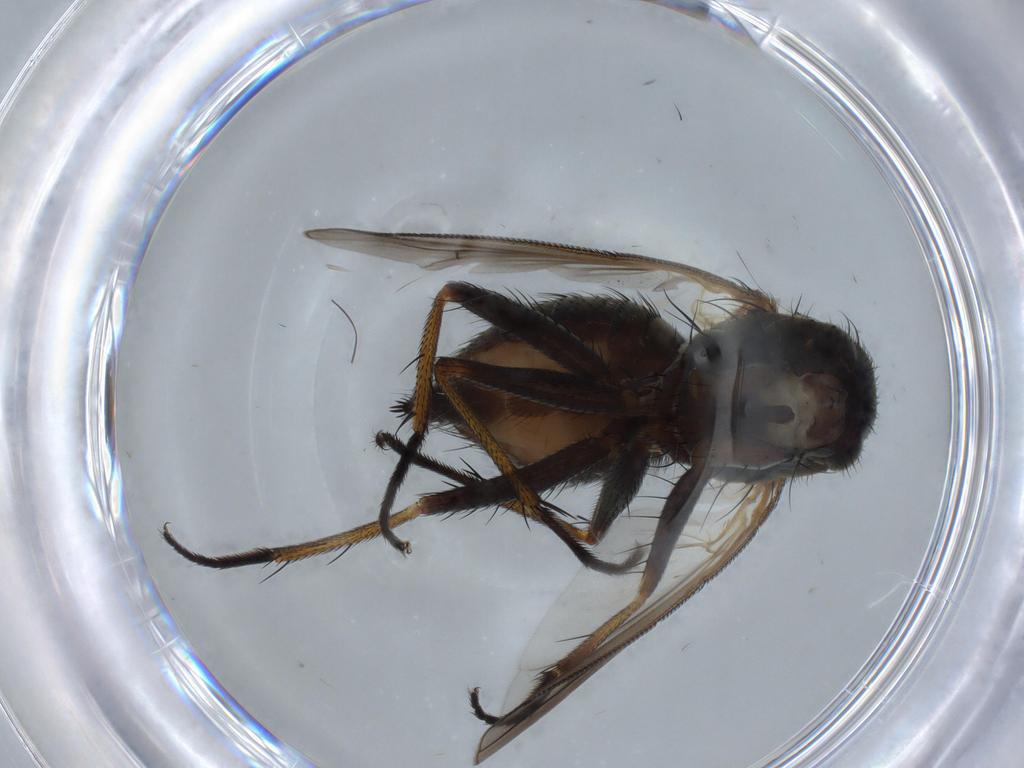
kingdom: Animalia
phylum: Arthropoda
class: Insecta
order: Diptera
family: Muscidae
